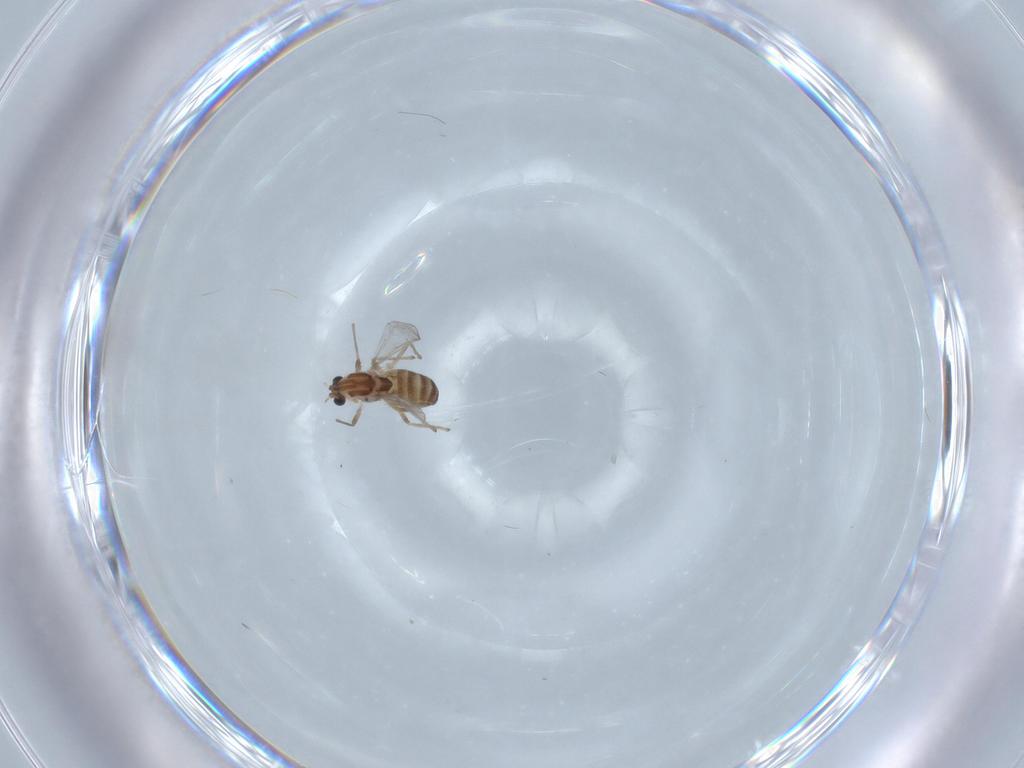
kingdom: Animalia
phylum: Arthropoda
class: Insecta
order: Diptera
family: Chironomidae
